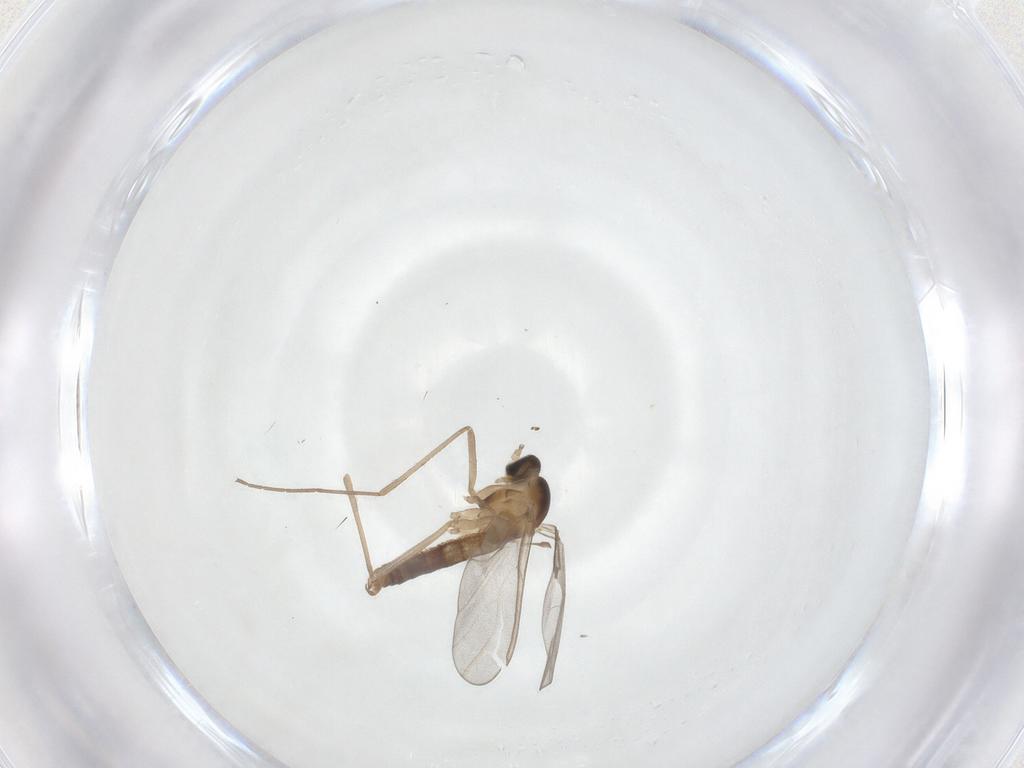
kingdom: Animalia
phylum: Arthropoda
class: Insecta
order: Diptera
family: Cecidomyiidae
